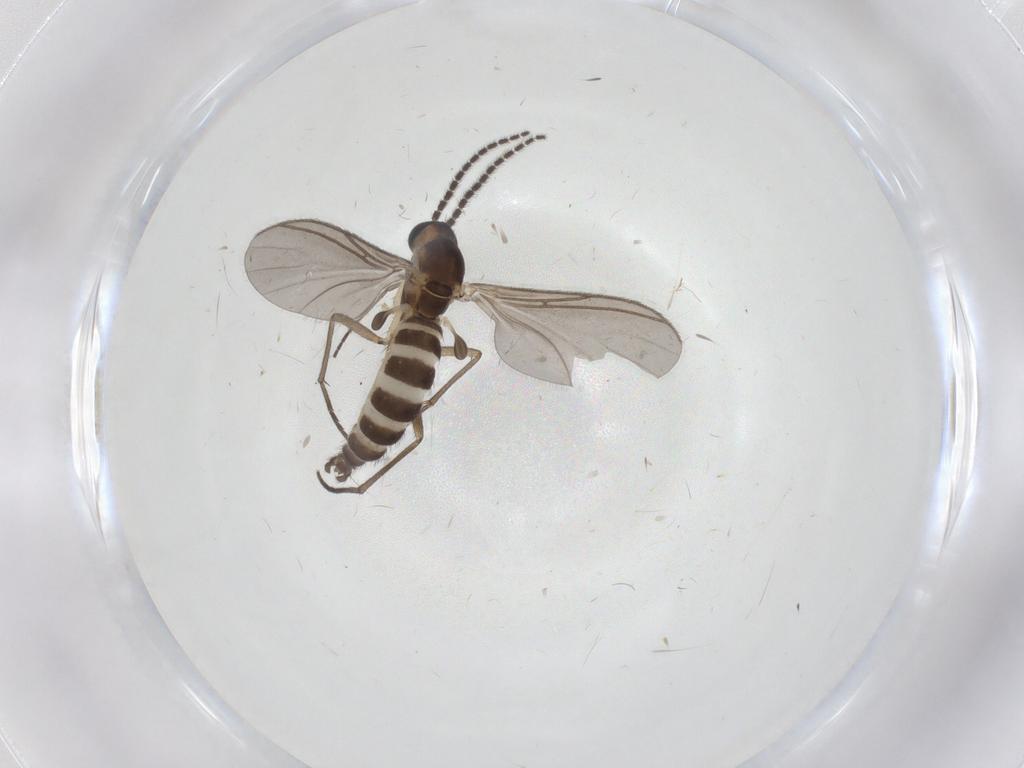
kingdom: Animalia
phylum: Arthropoda
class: Insecta
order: Diptera
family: Sciaridae
